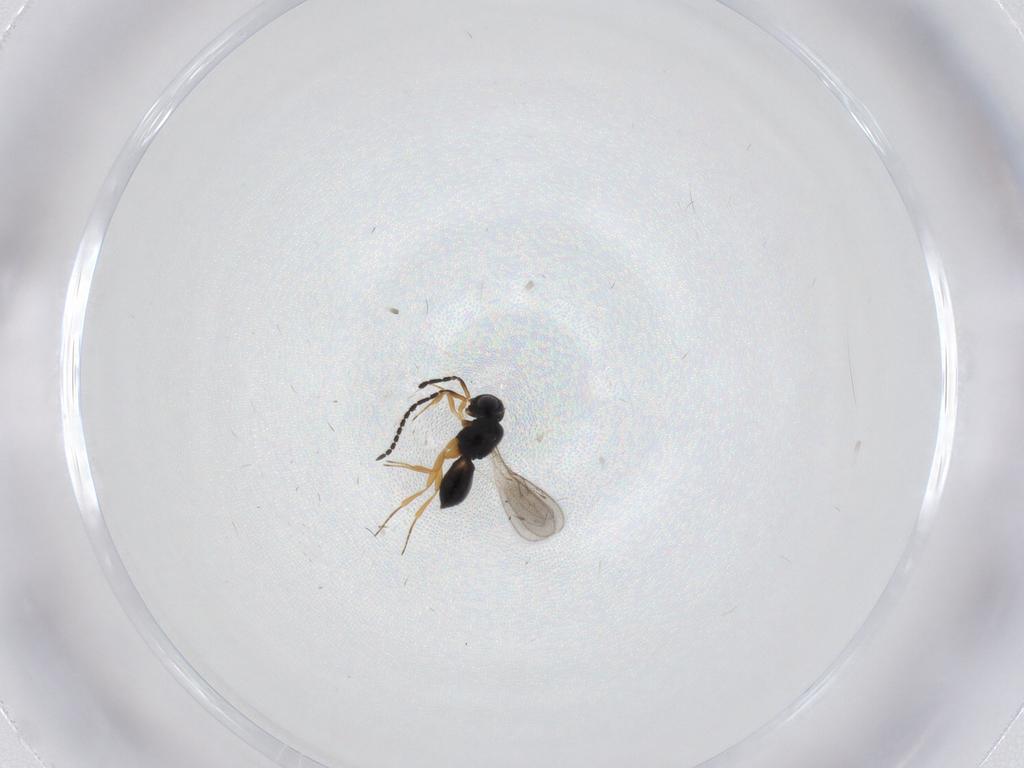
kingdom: Animalia
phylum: Arthropoda
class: Insecta
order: Hymenoptera
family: Scelionidae
